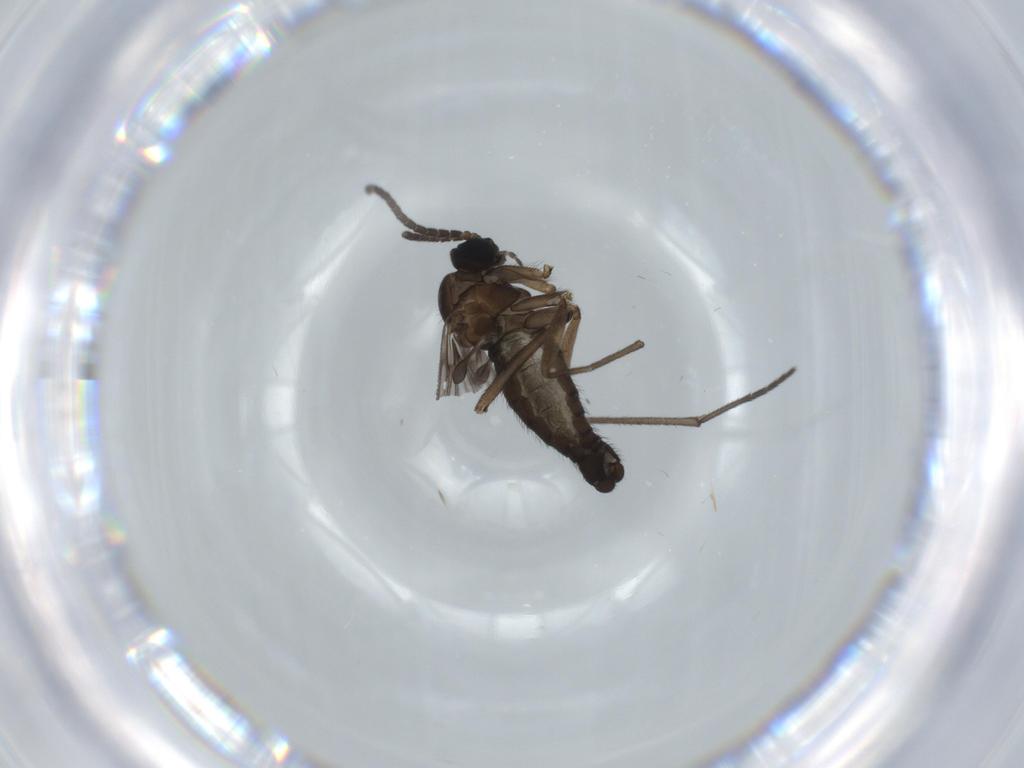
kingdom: Animalia
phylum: Arthropoda
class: Insecta
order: Diptera
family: Sciaridae
